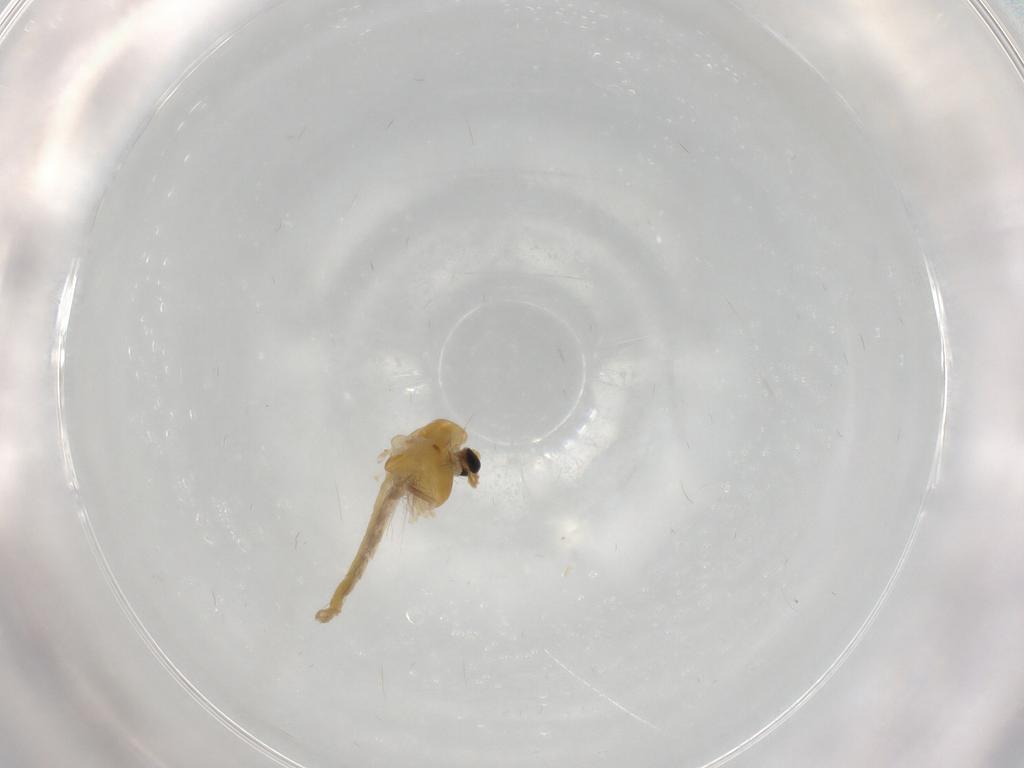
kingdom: Animalia
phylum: Arthropoda
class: Insecta
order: Diptera
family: Chironomidae
